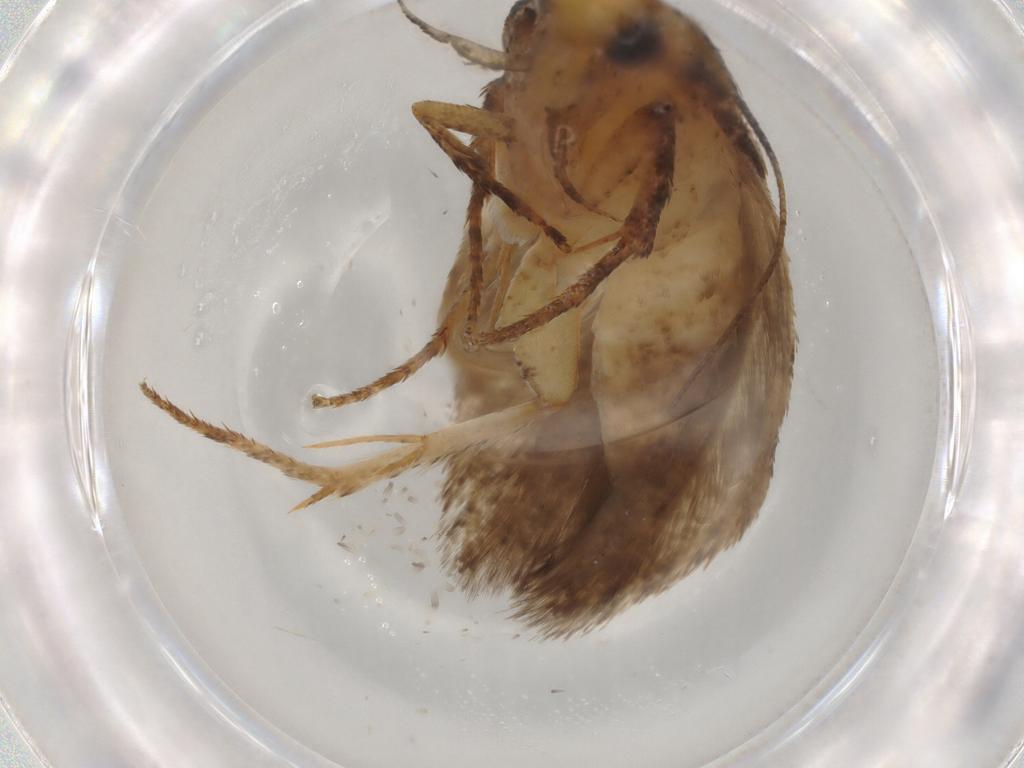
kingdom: Animalia
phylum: Arthropoda
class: Insecta
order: Lepidoptera
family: Gelechiidae
